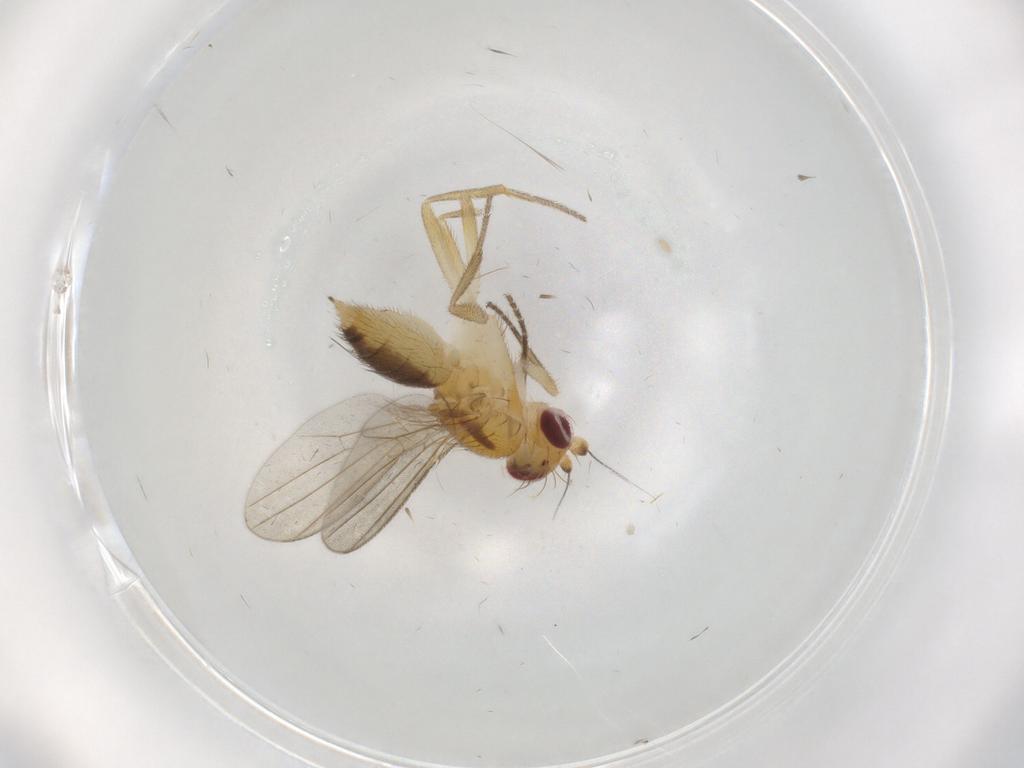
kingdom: Animalia
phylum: Arthropoda
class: Insecta
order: Diptera
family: Clusiidae
